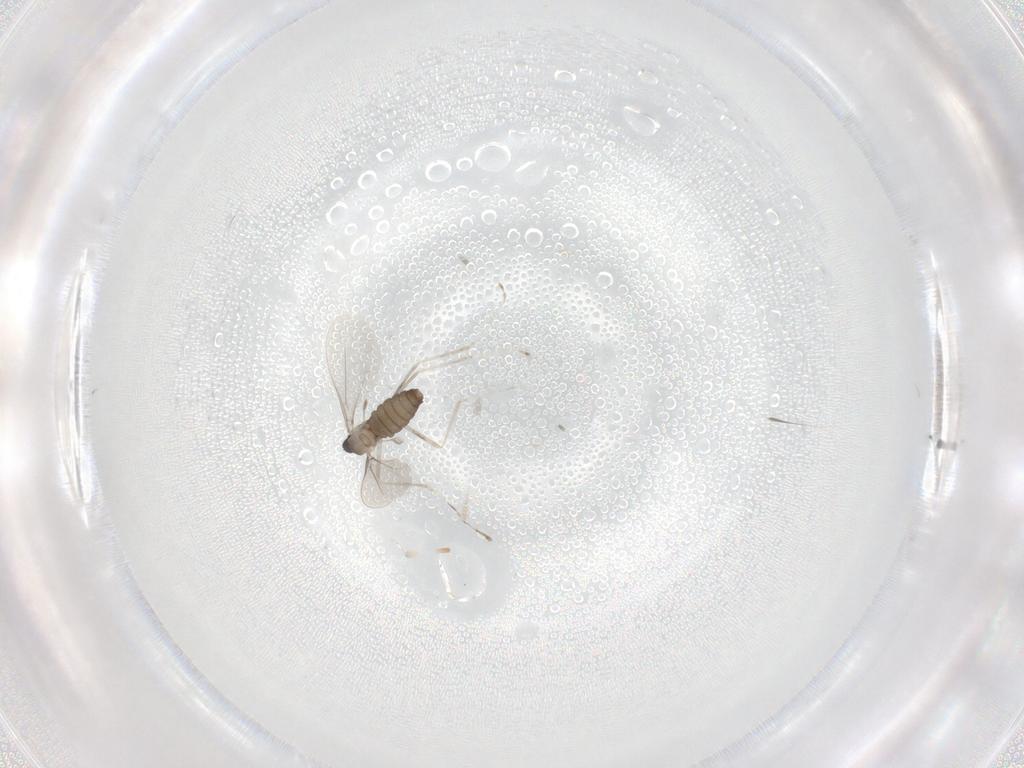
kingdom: Animalia
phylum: Arthropoda
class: Insecta
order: Diptera
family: Cecidomyiidae
